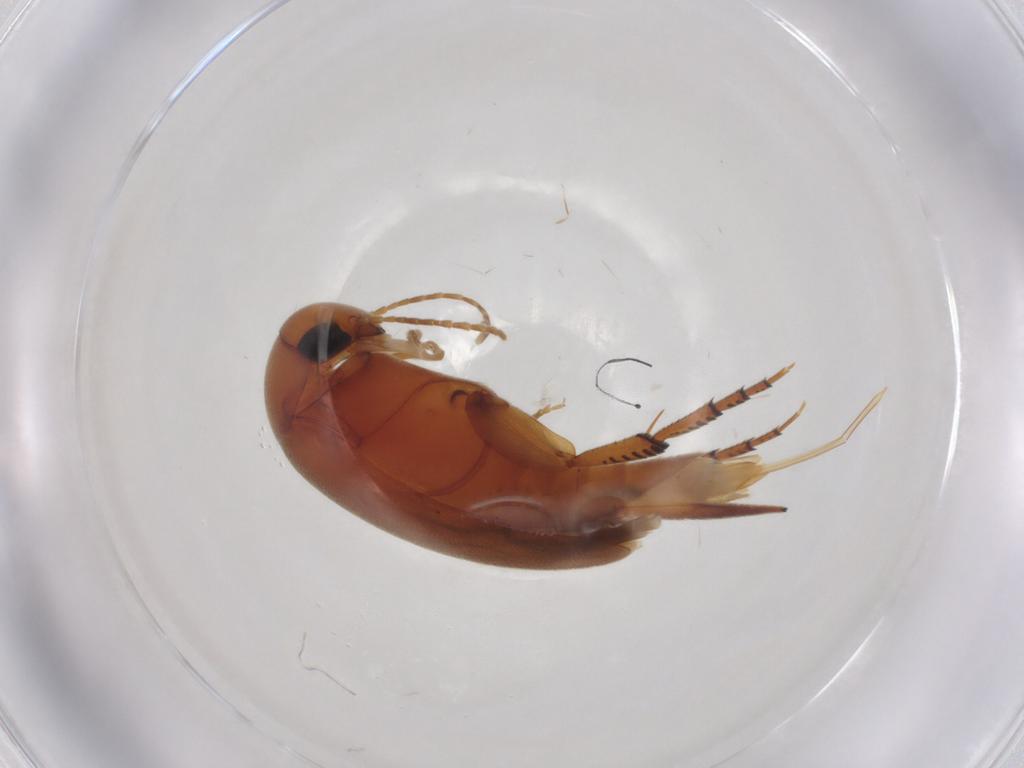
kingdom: Animalia
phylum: Arthropoda
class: Insecta
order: Coleoptera
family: Mordellidae
